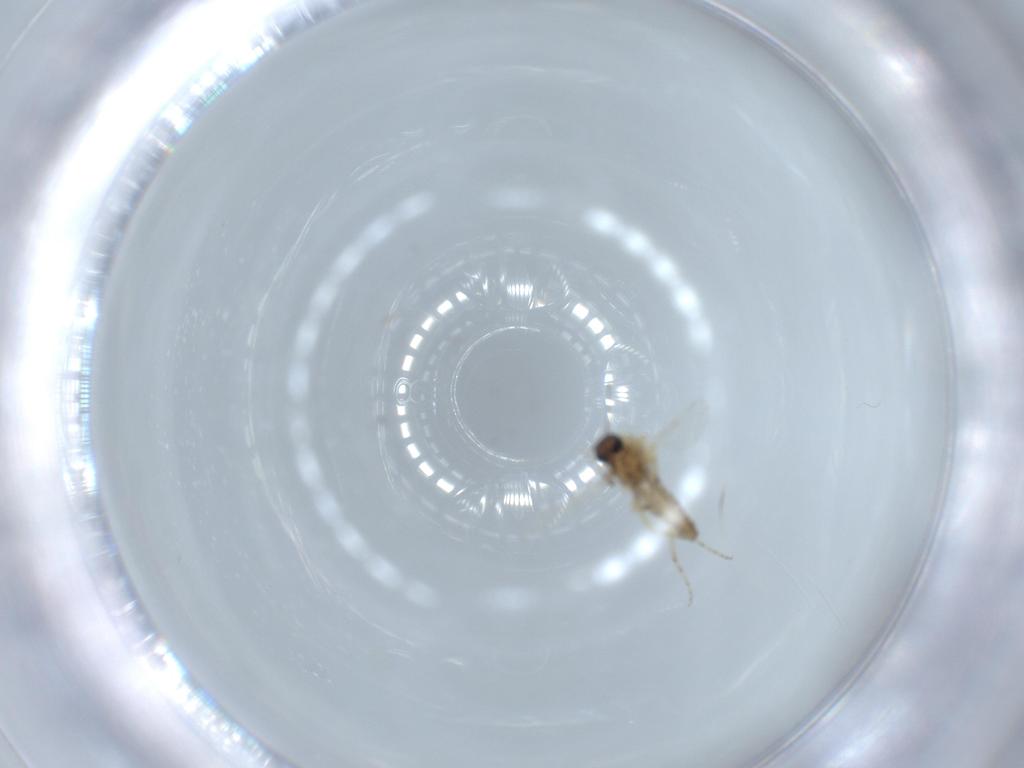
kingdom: Animalia
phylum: Arthropoda
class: Insecta
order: Diptera
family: Ceratopogonidae
